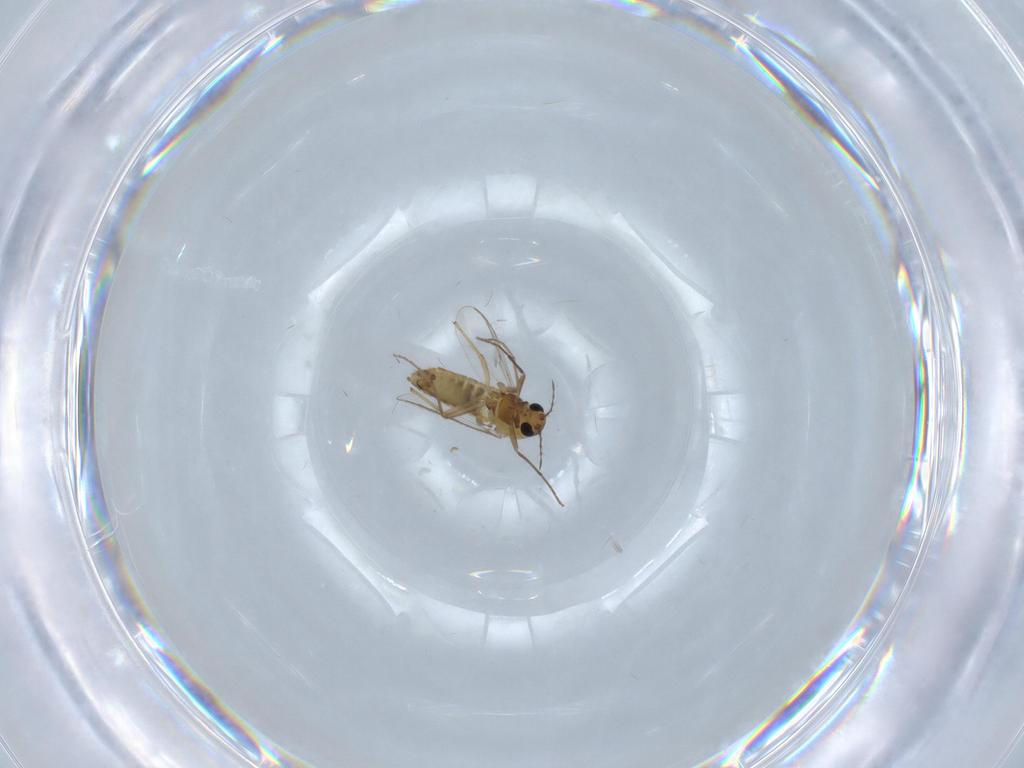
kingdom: Animalia
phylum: Arthropoda
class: Insecta
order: Diptera
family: Chironomidae
